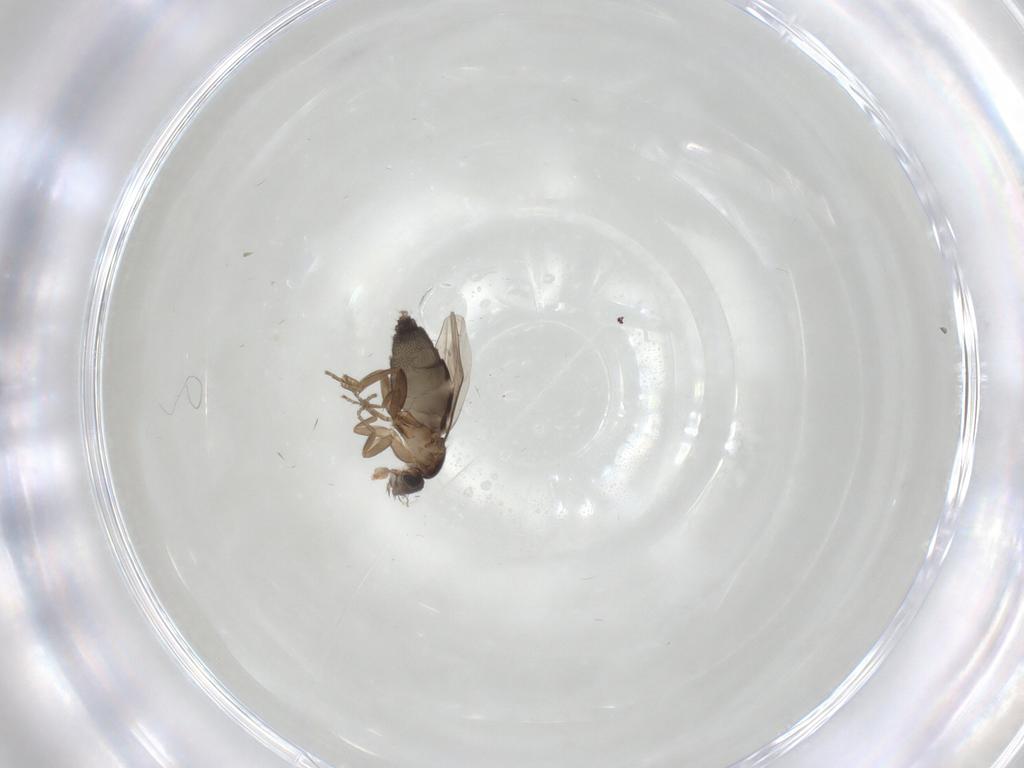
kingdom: Animalia
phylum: Arthropoda
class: Insecta
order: Diptera
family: Phoridae
